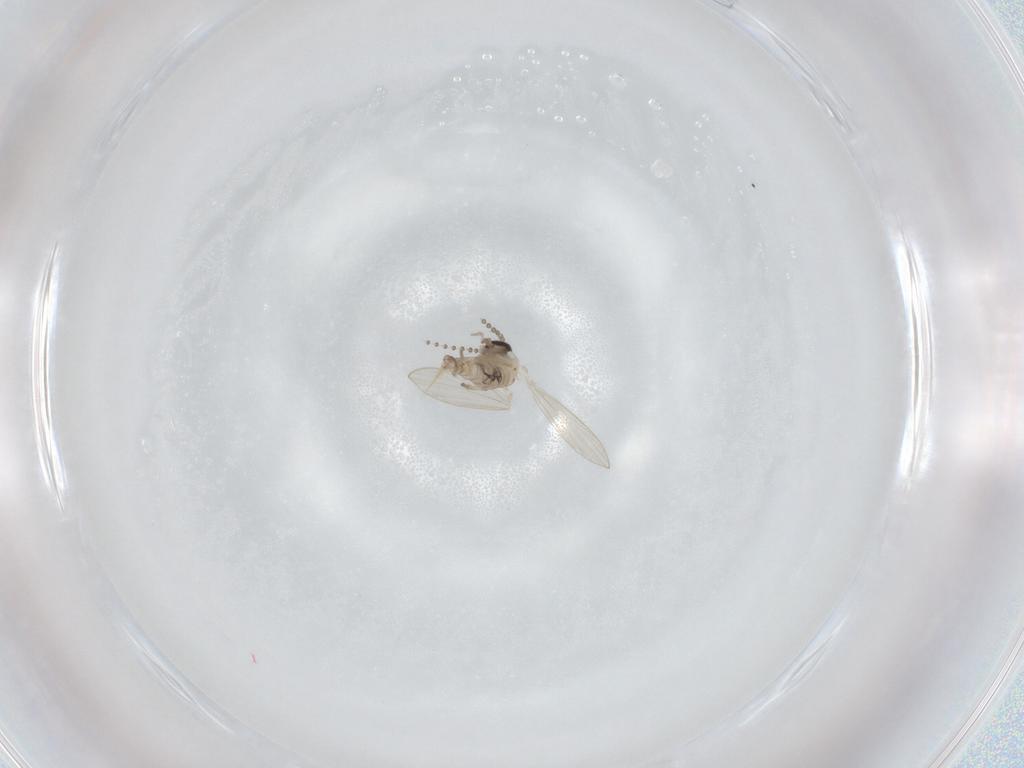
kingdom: Animalia
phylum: Arthropoda
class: Insecta
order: Diptera
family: Psychodidae
